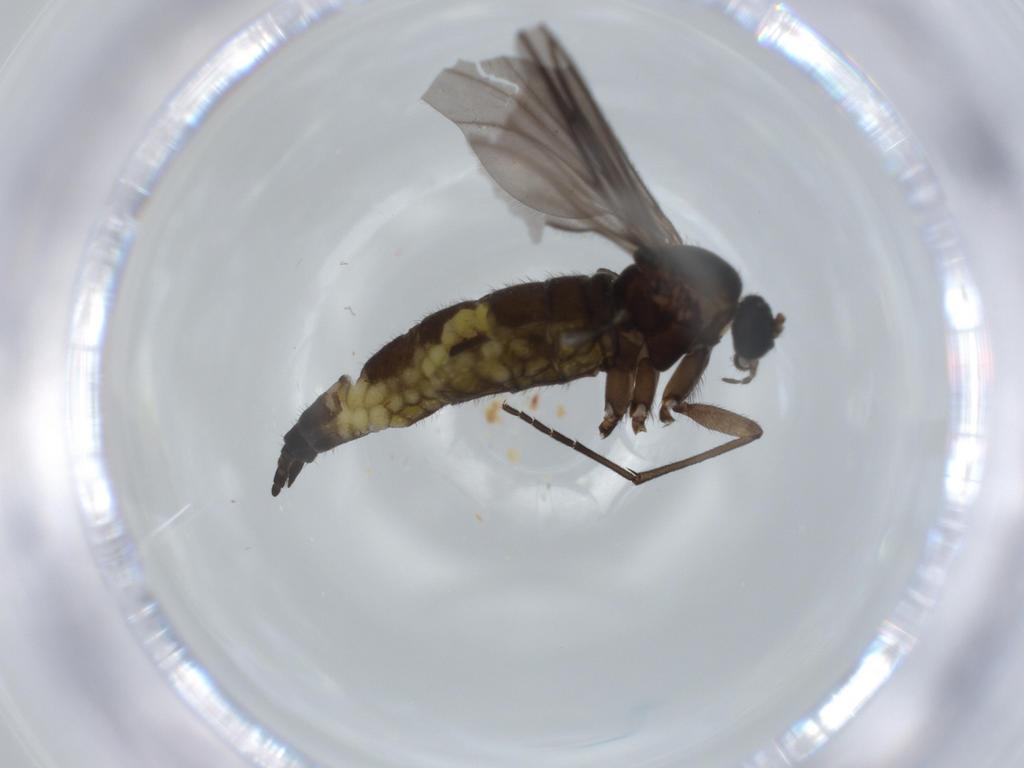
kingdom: Animalia
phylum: Arthropoda
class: Insecta
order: Diptera
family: Sciaridae
